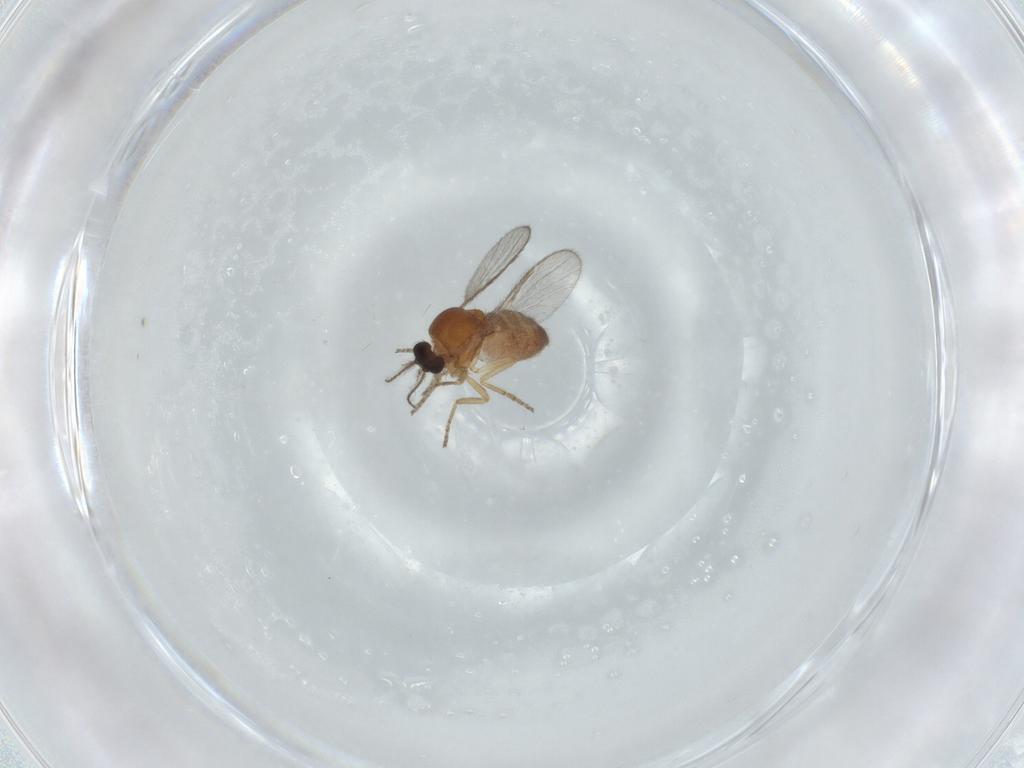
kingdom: Animalia
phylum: Arthropoda
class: Insecta
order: Diptera
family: Ceratopogonidae
